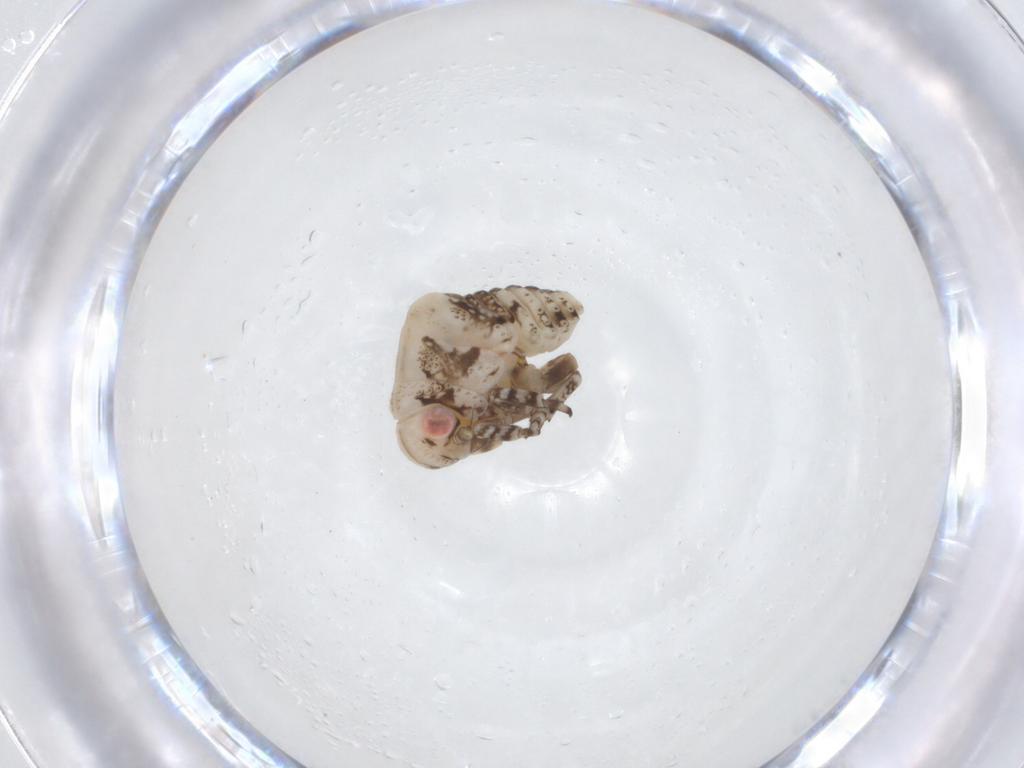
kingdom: Animalia
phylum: Arthropoda
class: Insecta
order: Hemiptera
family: Acanaloniidae
